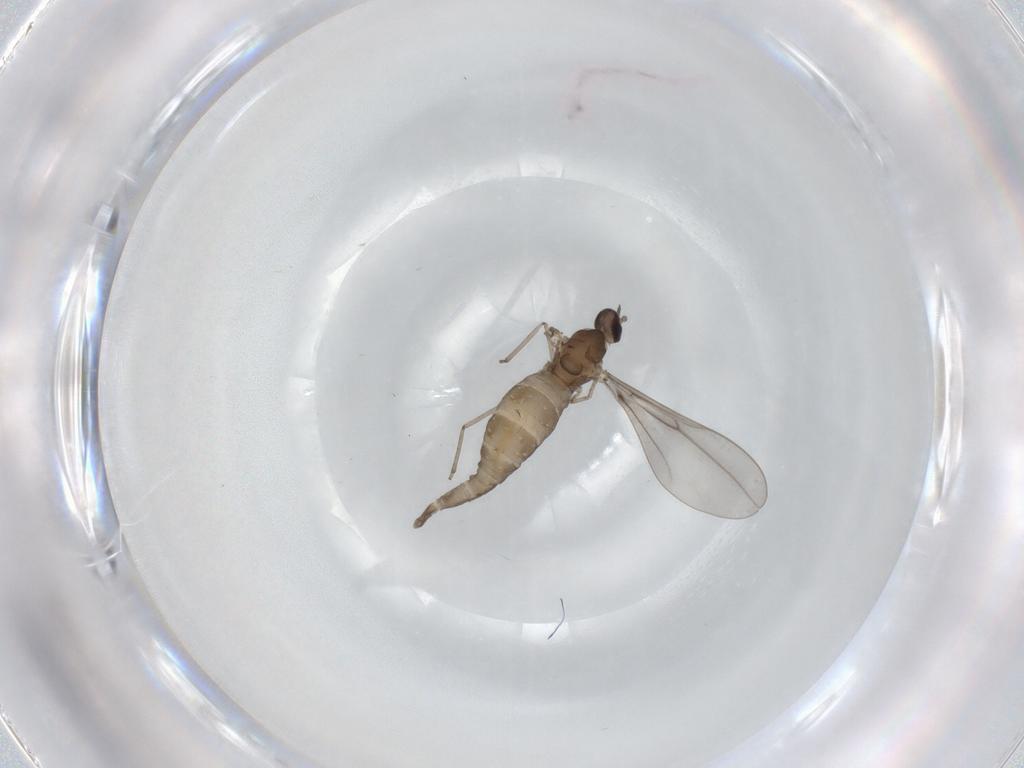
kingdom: Animalia
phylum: Arthropoda
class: Insecta
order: Diptera
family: Cecidomyiidae
